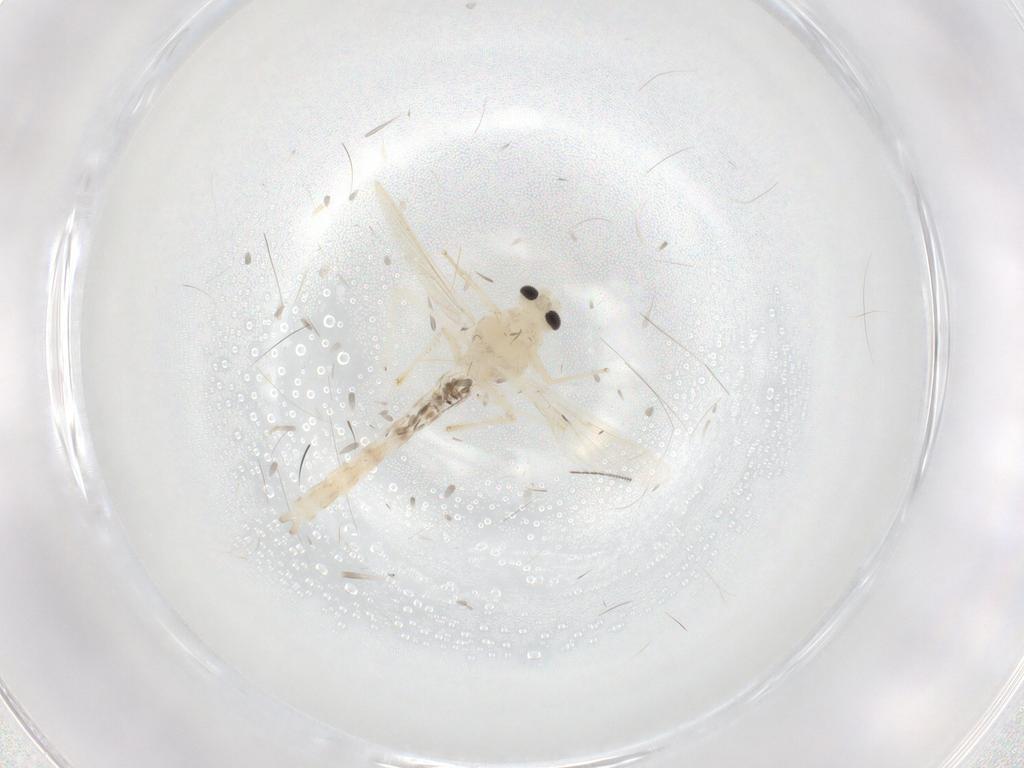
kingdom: Animalia
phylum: Arthropoda
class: Insecta
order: Diptera
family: Chironomidae
